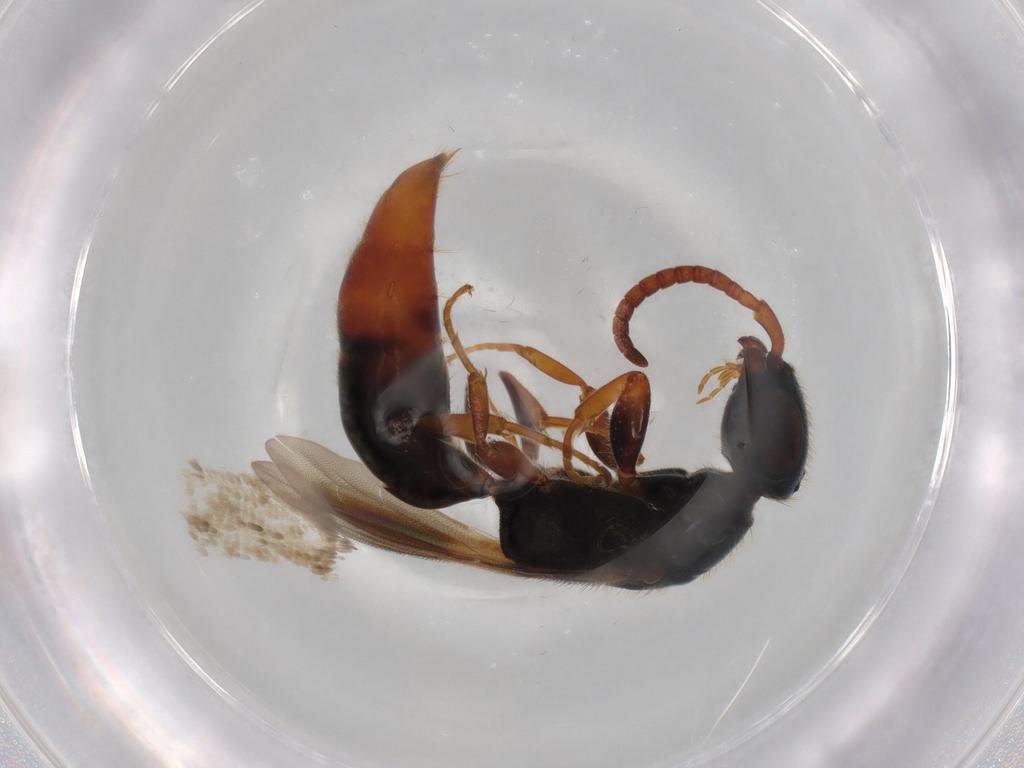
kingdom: Animalia
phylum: Arthropoda
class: Insecta
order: Hymenoptera
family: Bethylidae
